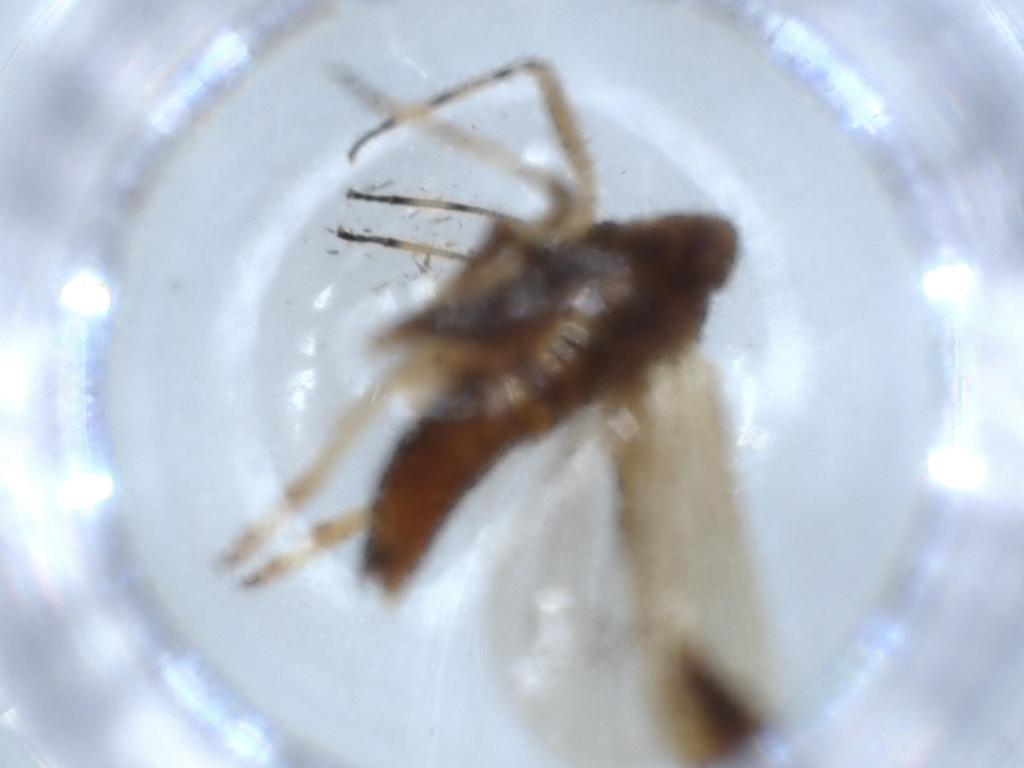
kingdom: Animalia
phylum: Arthropoda
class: Insecta
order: Hemiptera
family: Delphacidae
